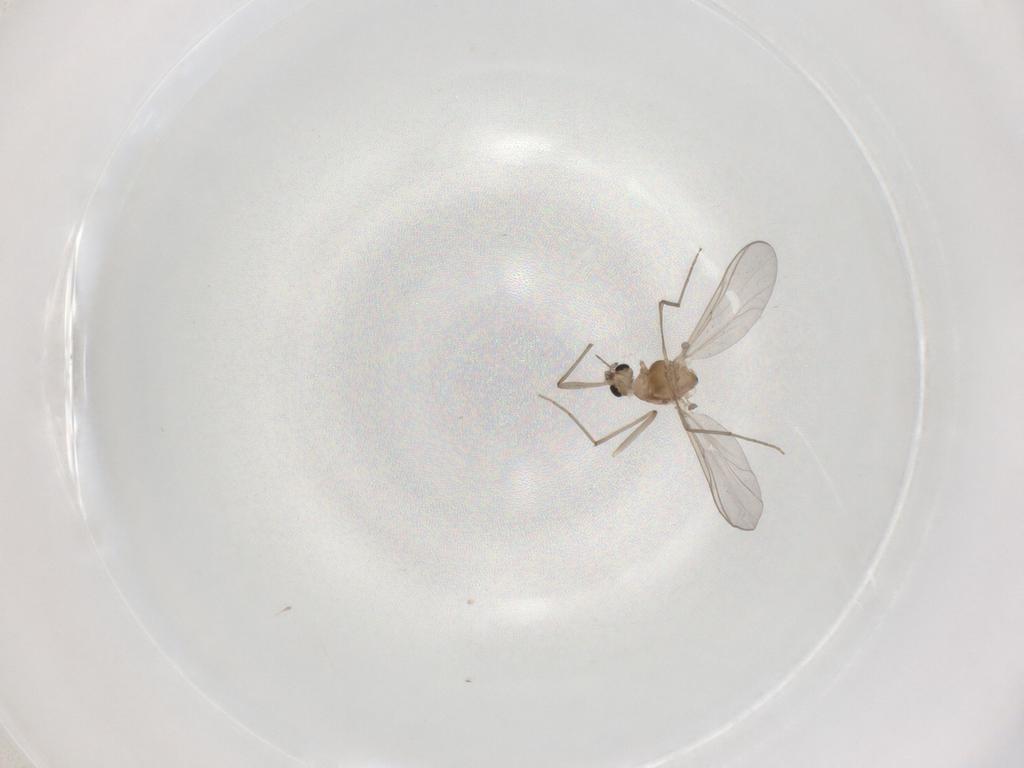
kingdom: Animalia
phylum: Arthropoda
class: Insecta
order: Diptera
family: Chironomidae
